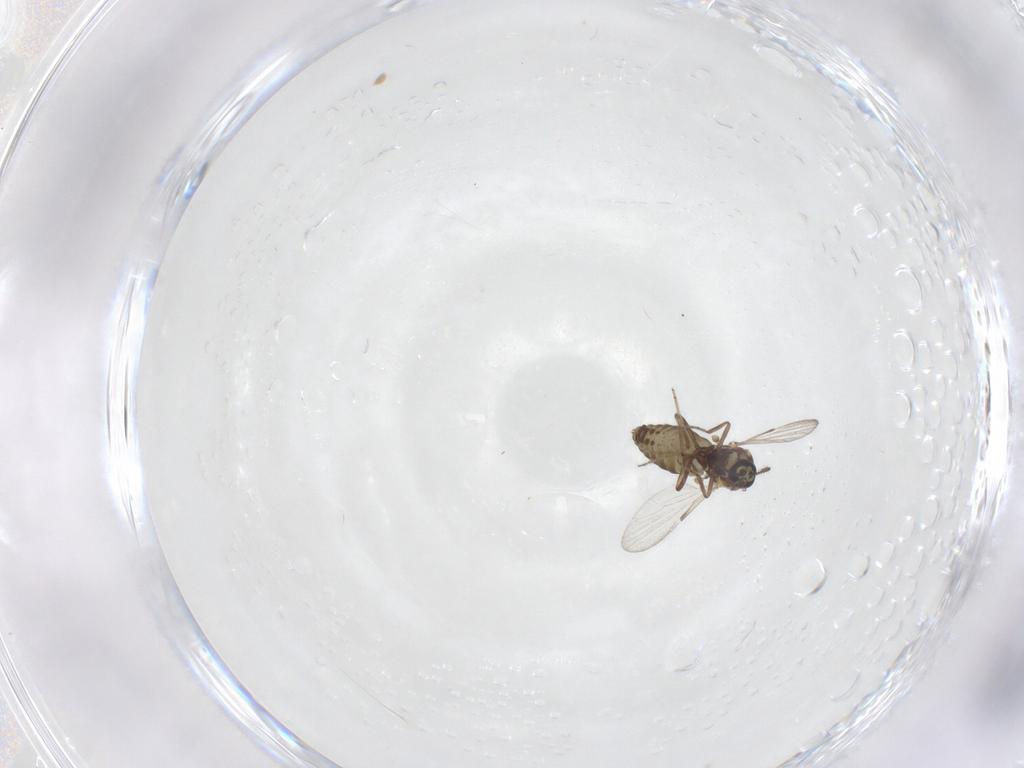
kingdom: Animalia
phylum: Arthropoda
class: Insecta
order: Diptera
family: Ceratopogonidae
